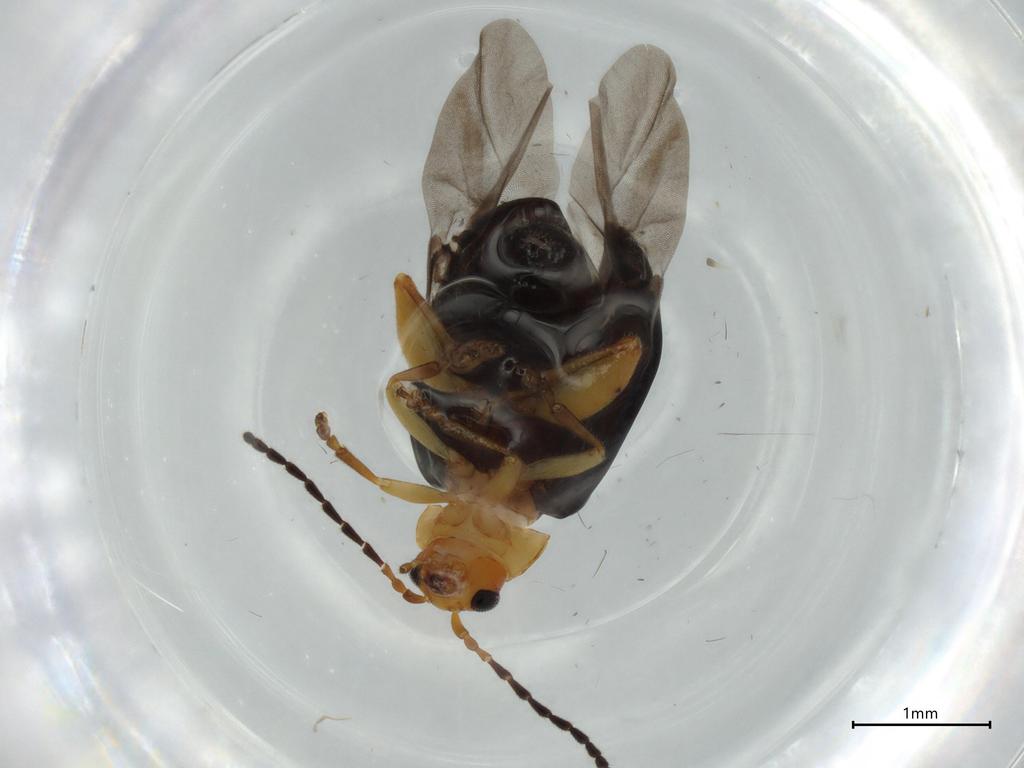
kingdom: Animalia
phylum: Arthropoda
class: Insecta
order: Coleoptera
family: Chrysomelidae
